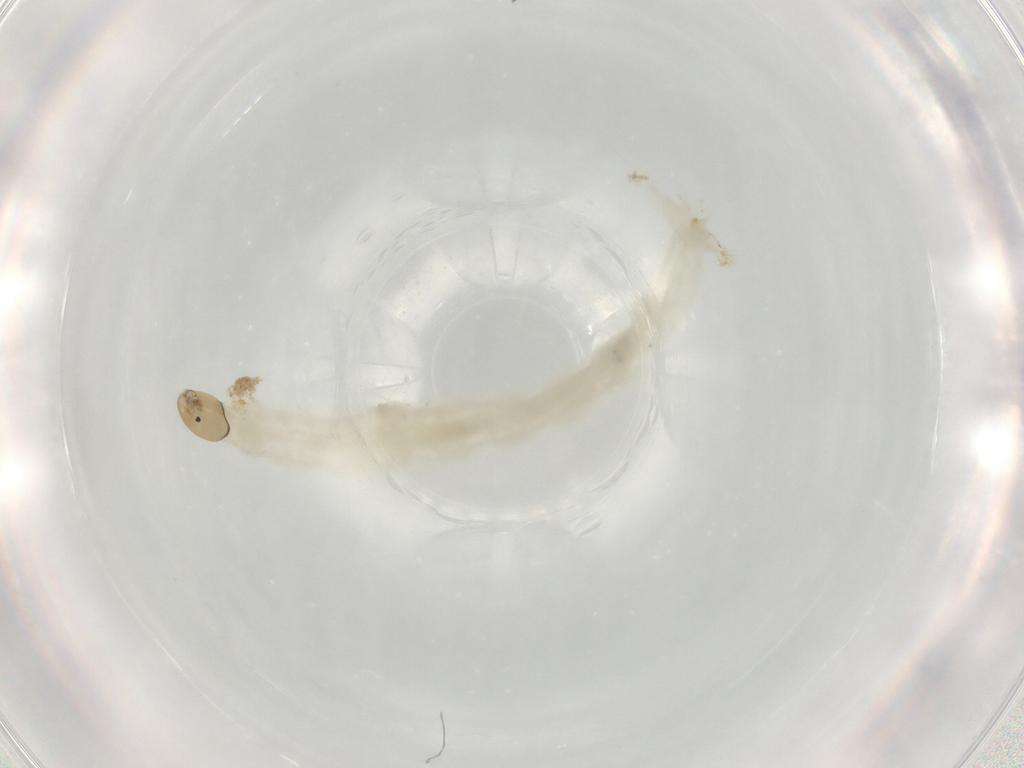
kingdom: Animalia
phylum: Arthropoda
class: Insecta
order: Diptera
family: Chironomidae
